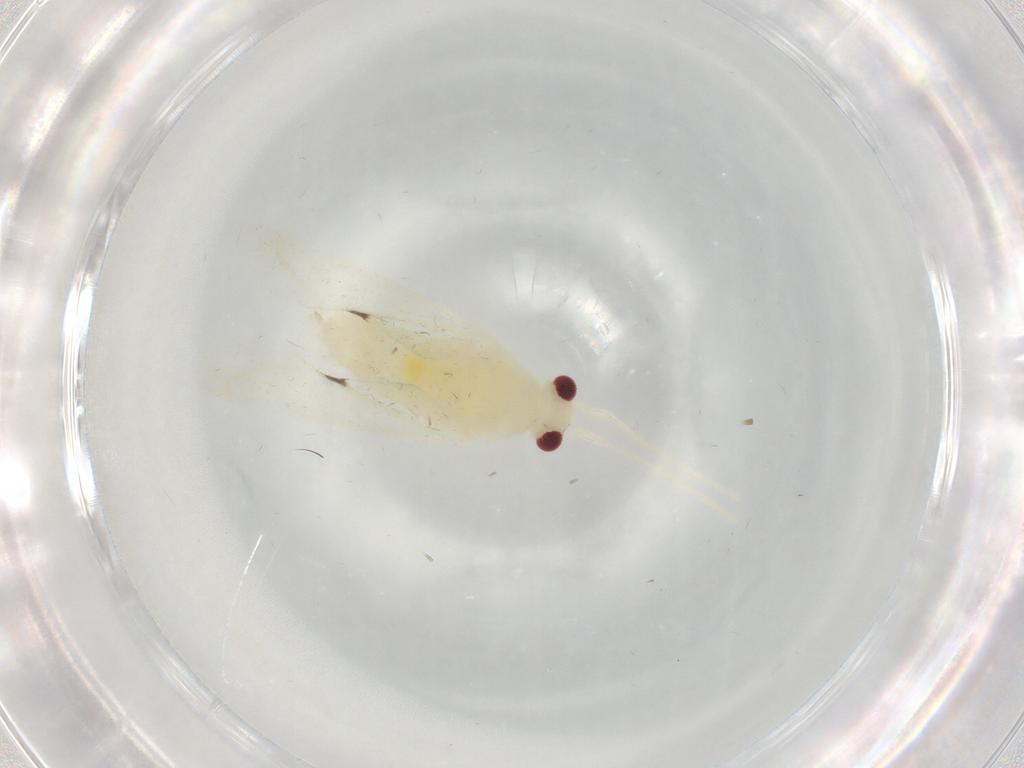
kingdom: Animalia
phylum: Arthropoda
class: Insecta
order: Hemiptera
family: Miridae
